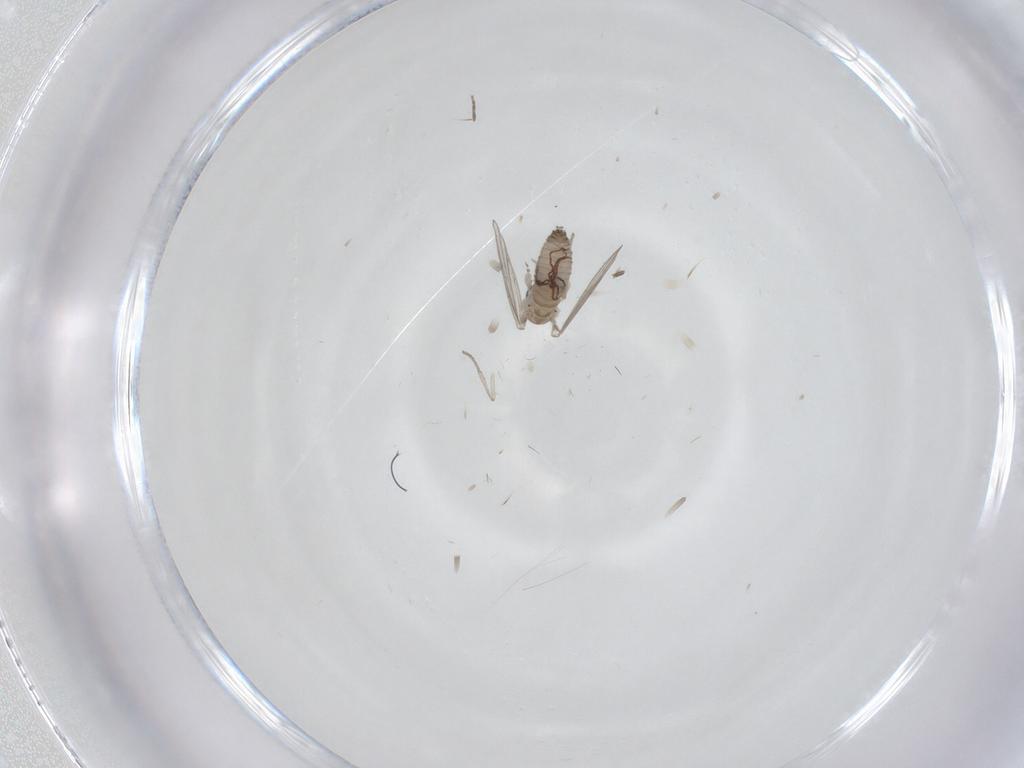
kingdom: Animalia
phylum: Arthropoda
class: Insecta
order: Diptera
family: Psychodidae
